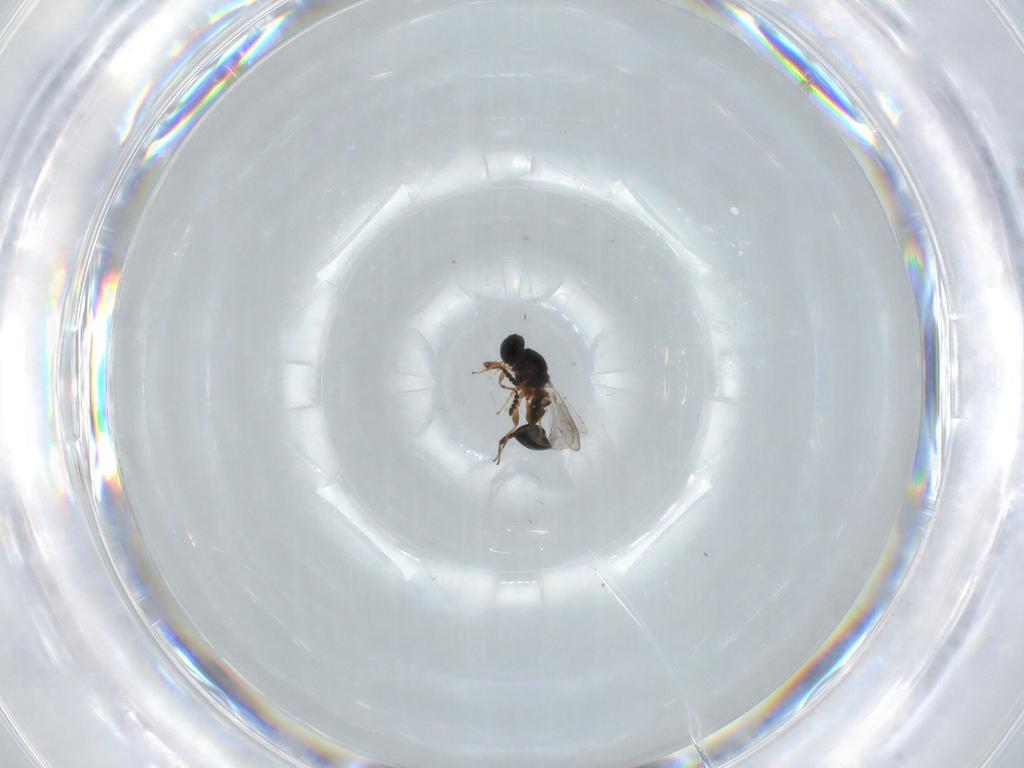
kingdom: Animalia
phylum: Arthropoda
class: Insecta
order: Hymenoptera
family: Platygastridae
